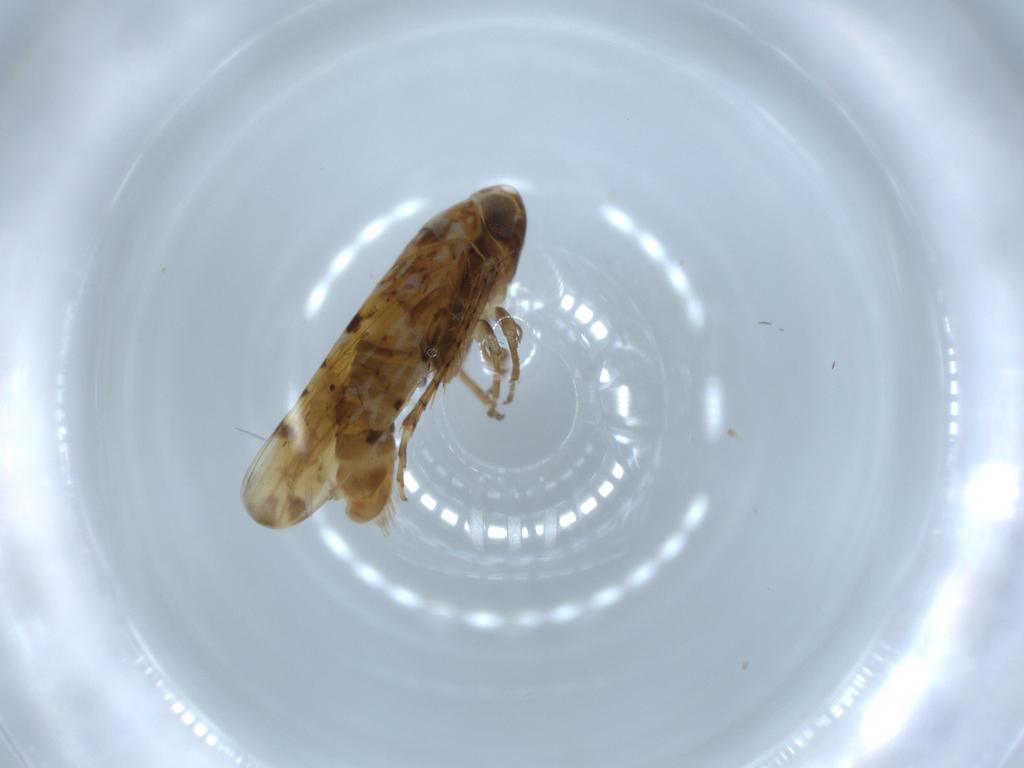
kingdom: Animalia
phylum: Arthropoda
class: Insecta
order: Hemiptera
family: Cicadellidae
